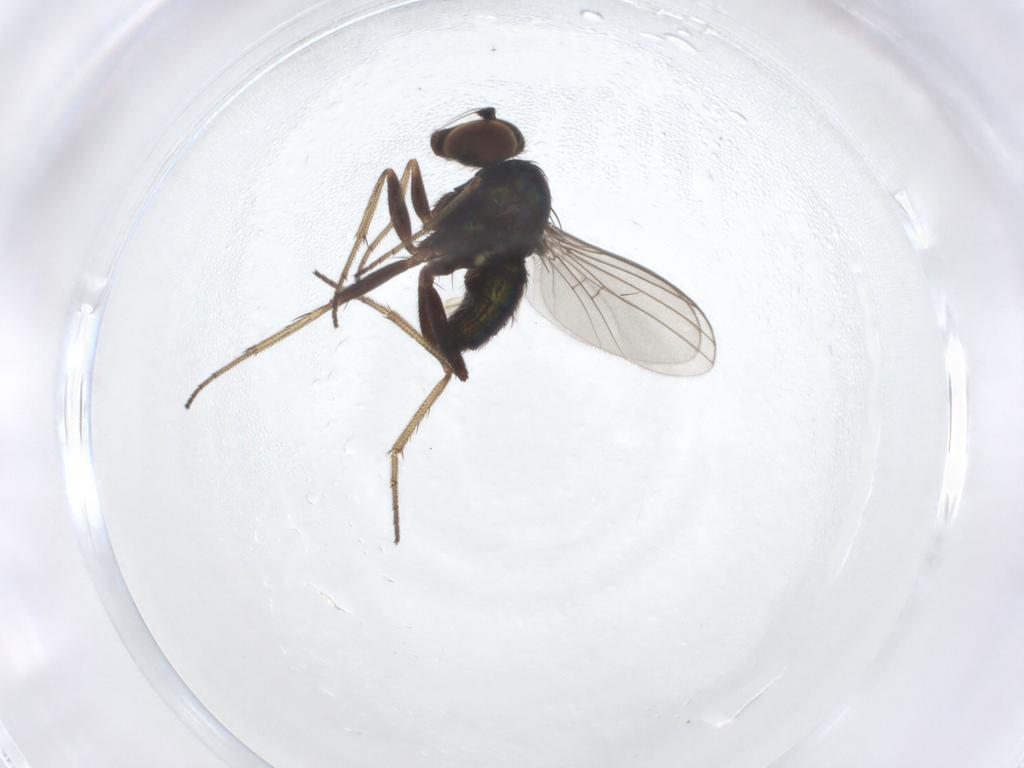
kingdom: Animalia
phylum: Arthropoda
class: Insecta
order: Diptera
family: Dolichopodidae
